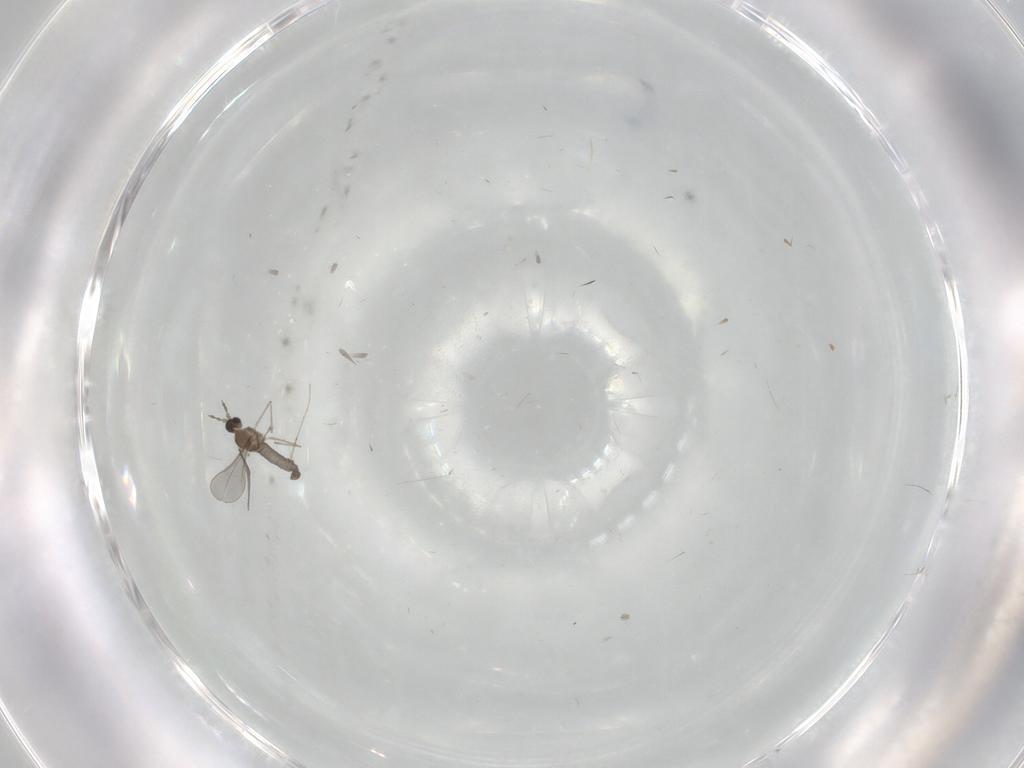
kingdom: Animalia
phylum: Arthropoda
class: Insecta
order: Diptera
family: Cecidomyiidae
